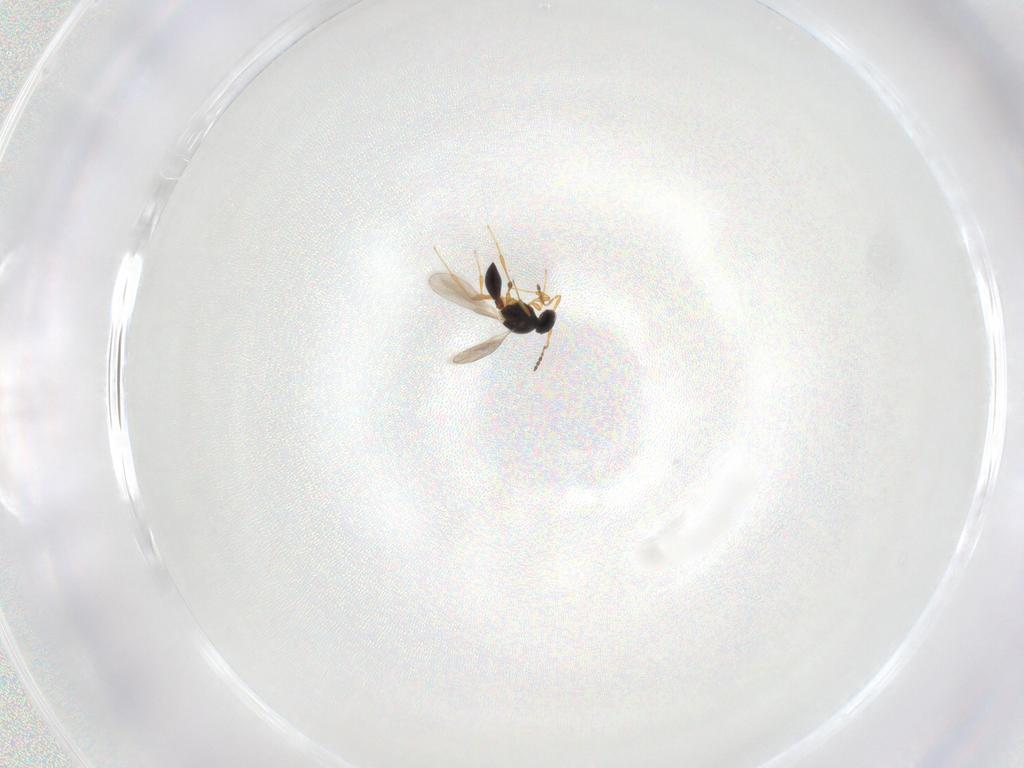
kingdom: Animalia
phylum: Arthropoda
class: Insecta
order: Hymenoptera
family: Platygastridae
